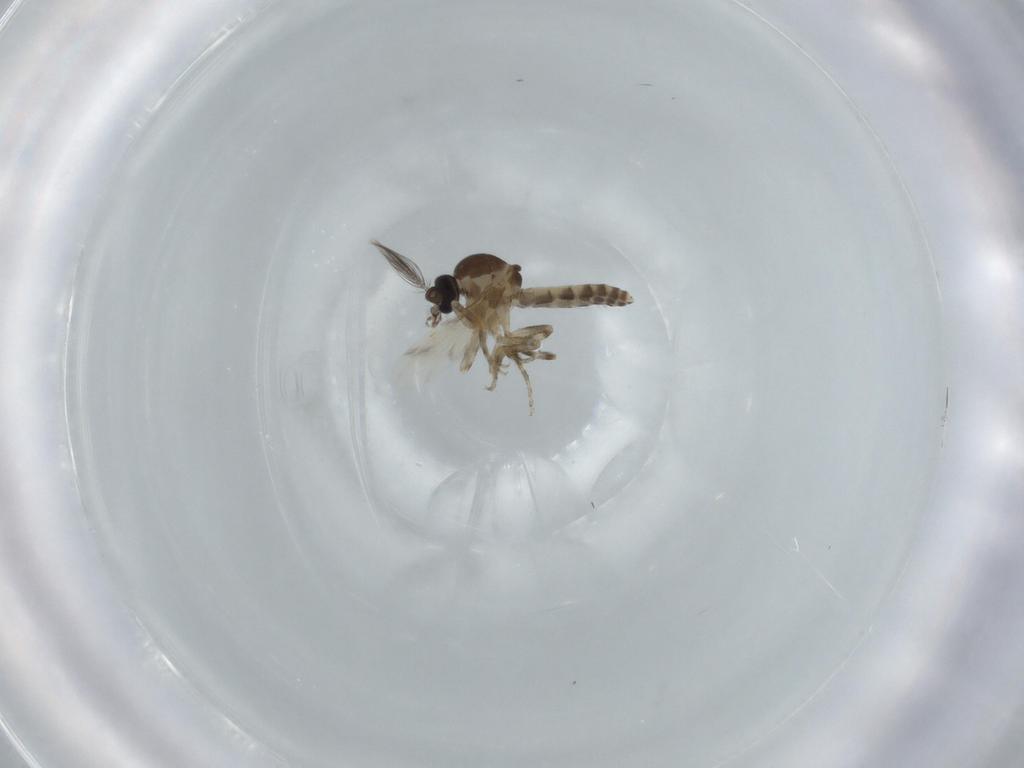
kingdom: Animalia
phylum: Arthropoda
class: Insecta
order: Diptera
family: Ceratopogonidae
